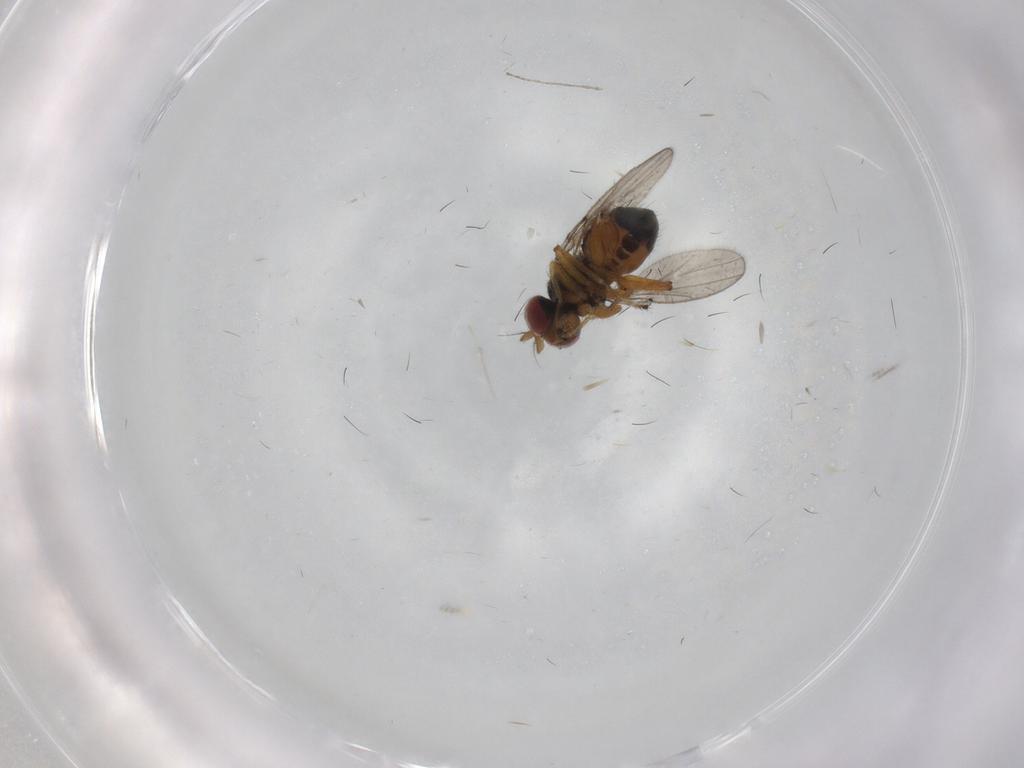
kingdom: Animalia
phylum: Arthropoda
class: Insecta
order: Diptera
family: Ephydridae
